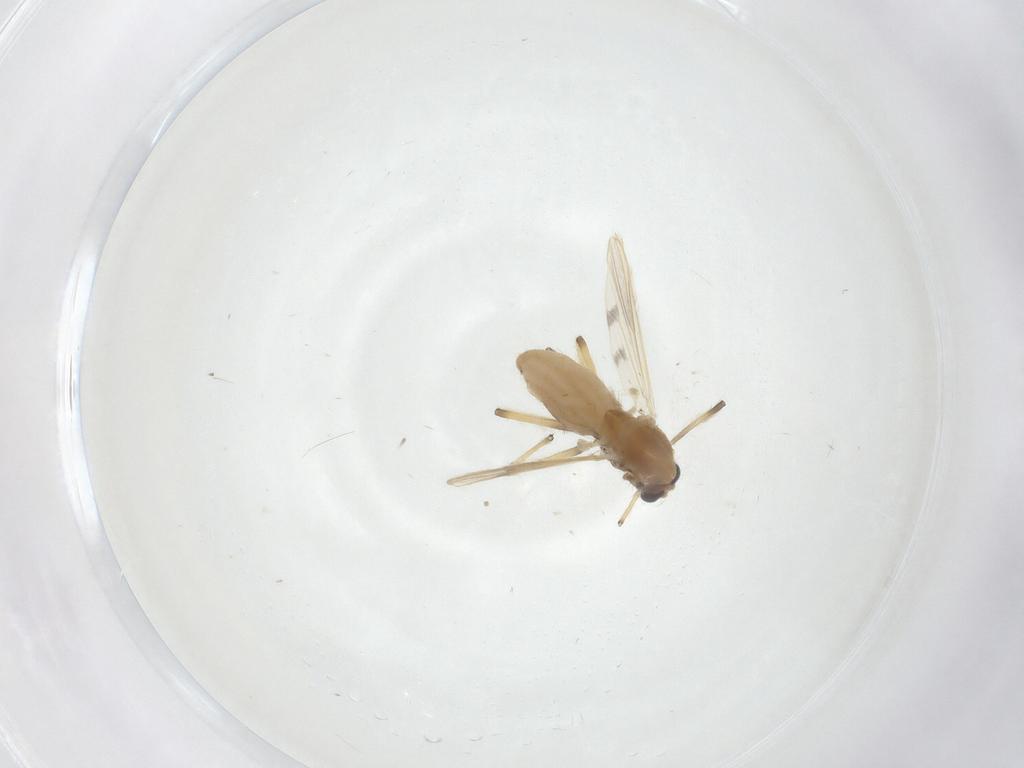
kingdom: Animalia
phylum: Arthropoda
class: Insecta
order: Diptera
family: Chironomidae
